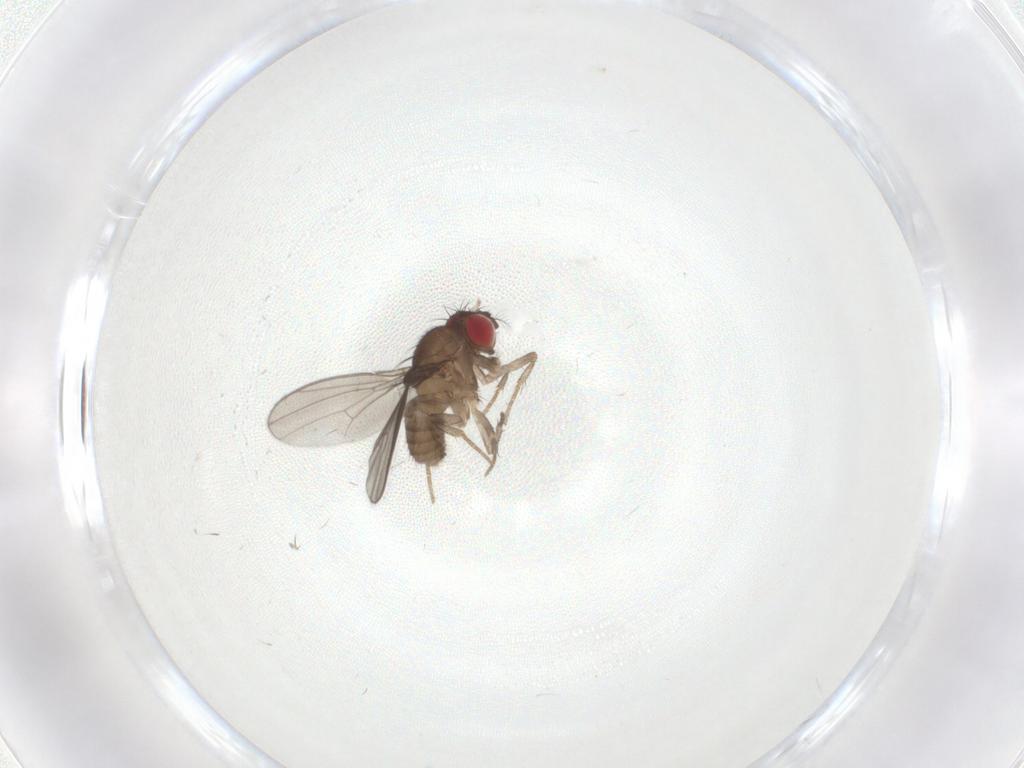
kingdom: Animalia
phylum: Arthropoda
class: Insecta
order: Diptera
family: Drosophilidae
